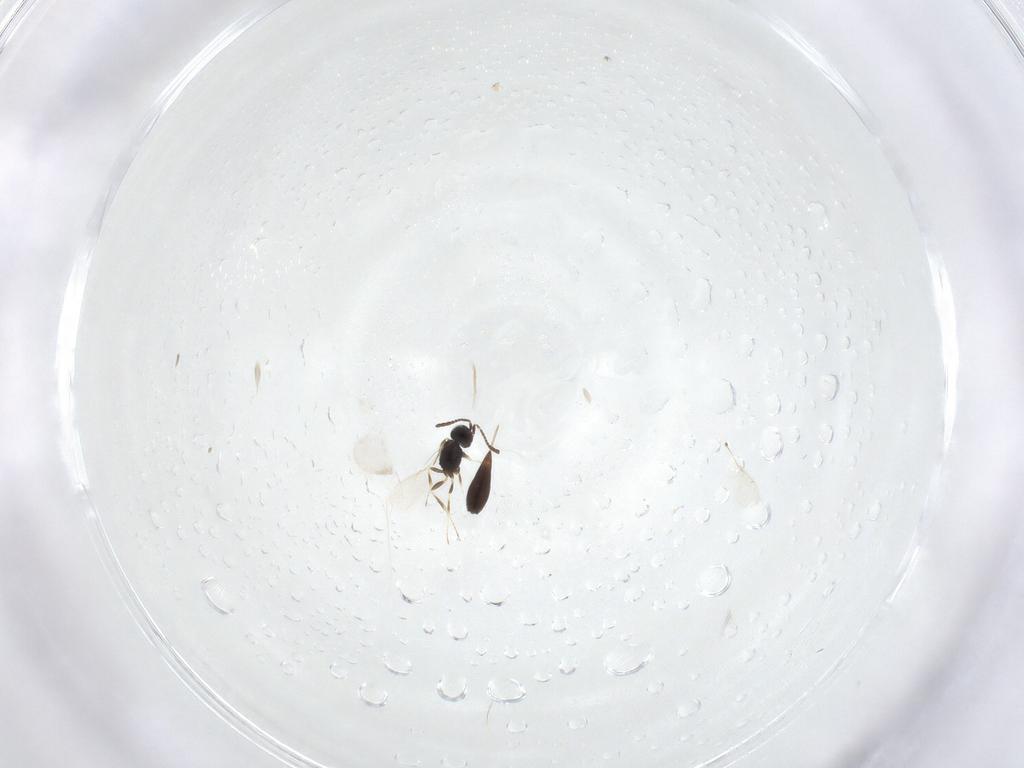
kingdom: Animalia
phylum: Arthropoda
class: Insecta
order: Hymenoptera
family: Scelionidae
